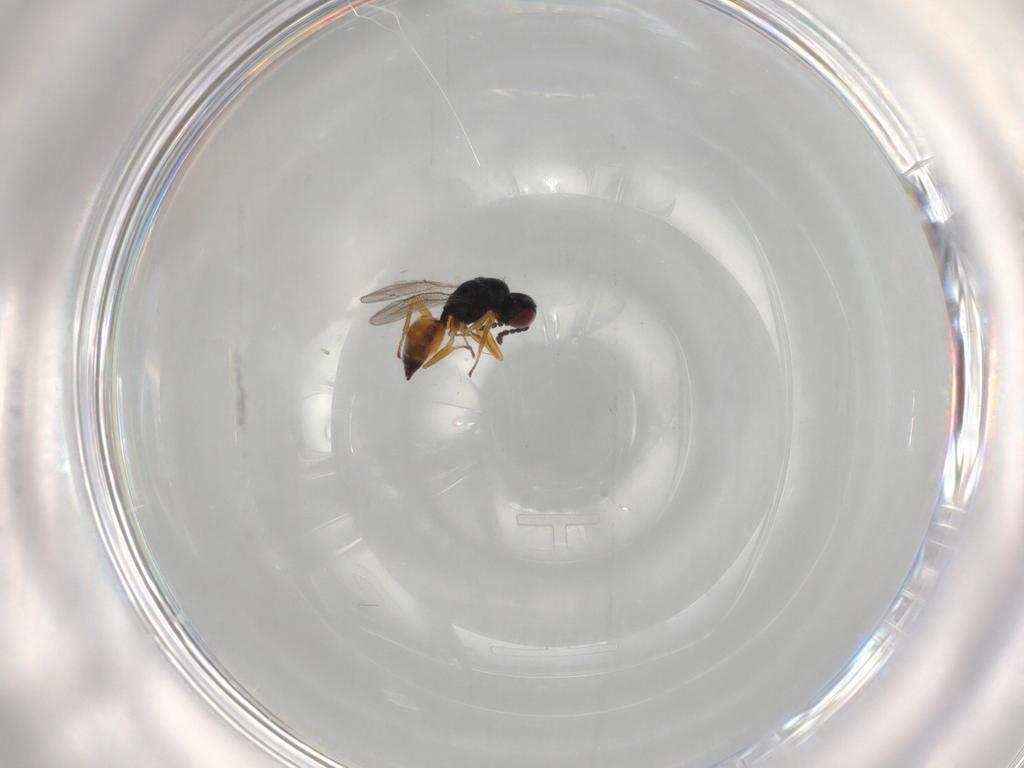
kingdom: Animalia
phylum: Arthropoda
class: Insecta
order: Hymenoptera
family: Eulophidae
